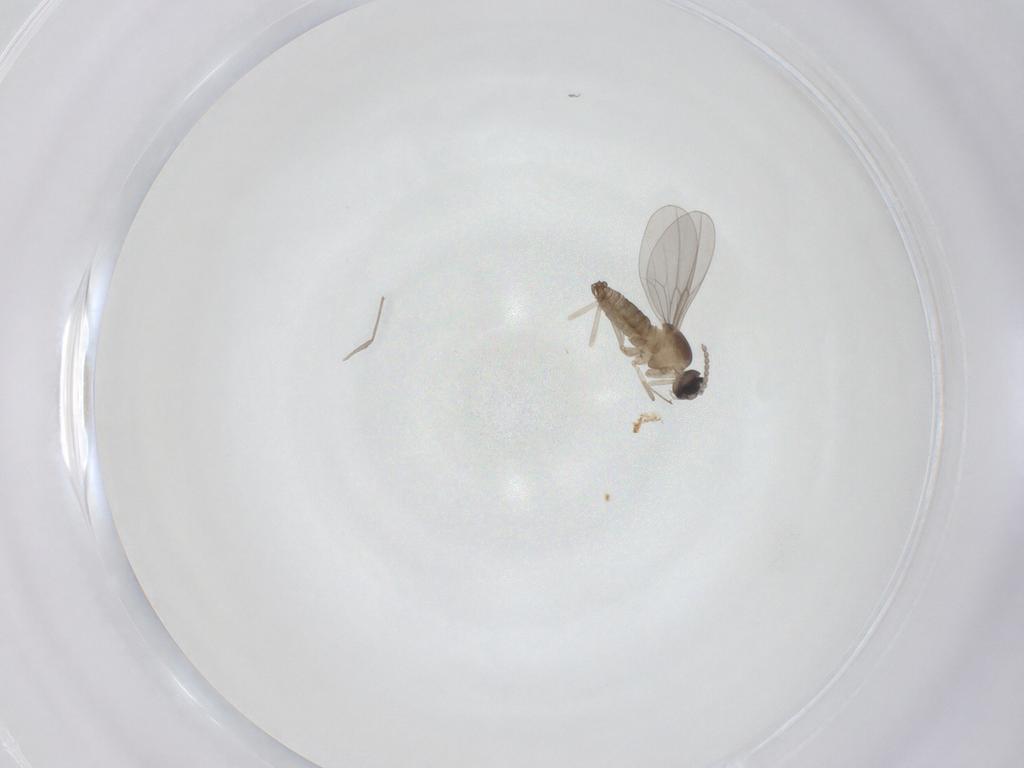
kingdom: Animalia
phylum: Arthropoda
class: Insecta
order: Diptera
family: Cecidomyiidae
